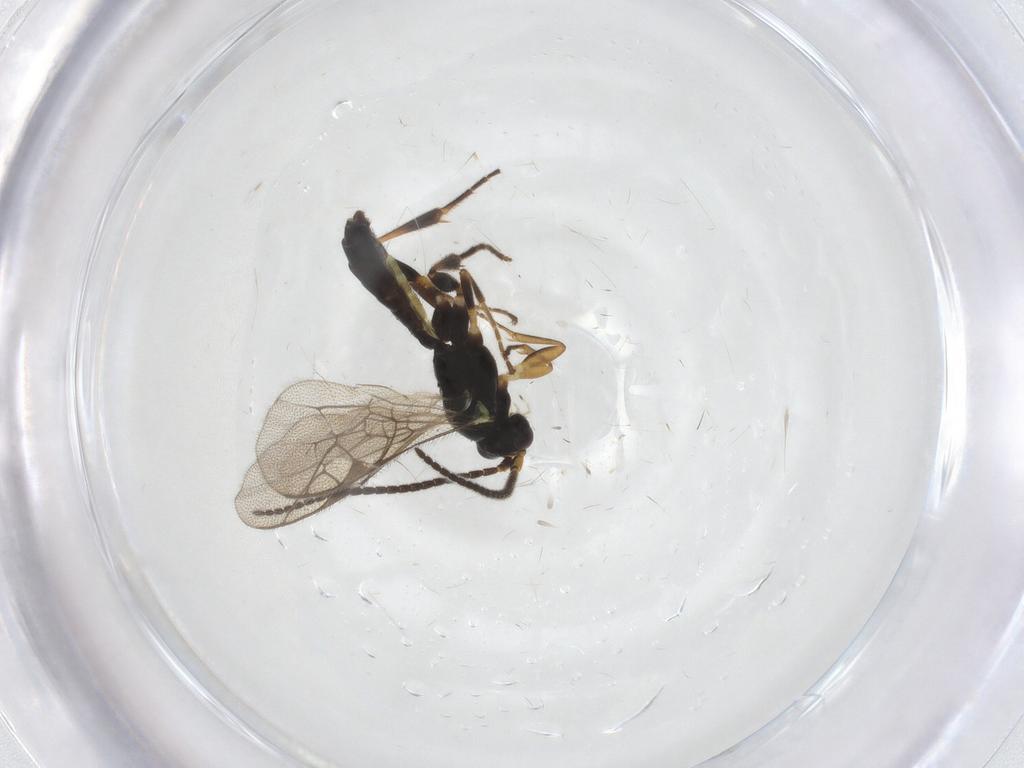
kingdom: Animalia
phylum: Arthropoda
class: Insecta
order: Hymenoptera
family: Ichneumonidae
